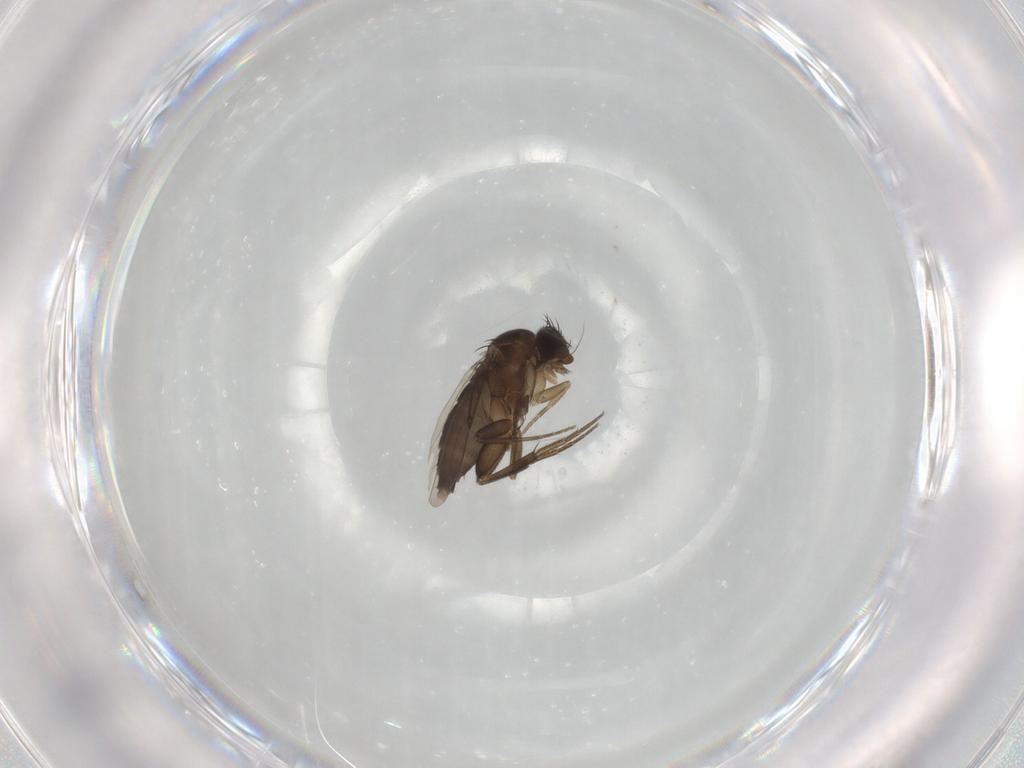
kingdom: Animalia
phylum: Arthropoda
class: Insecta
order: Diptera
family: Phoridae
